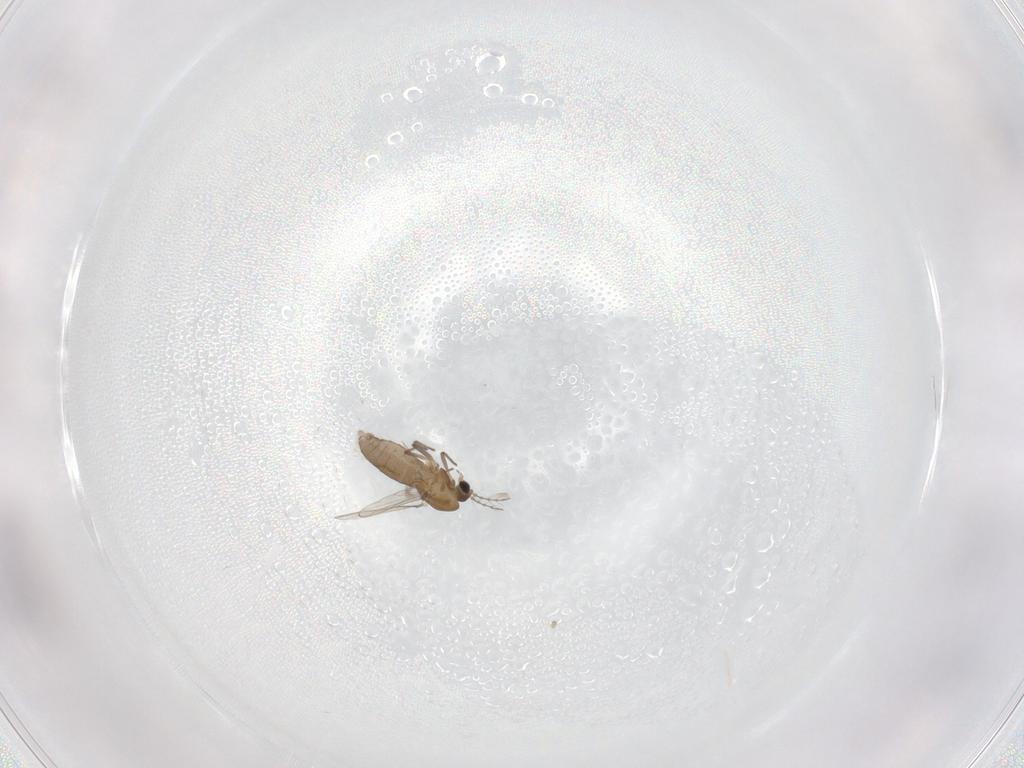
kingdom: Animalia
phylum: Arthropoda
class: Insecta
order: Diptera
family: Chironomidae
